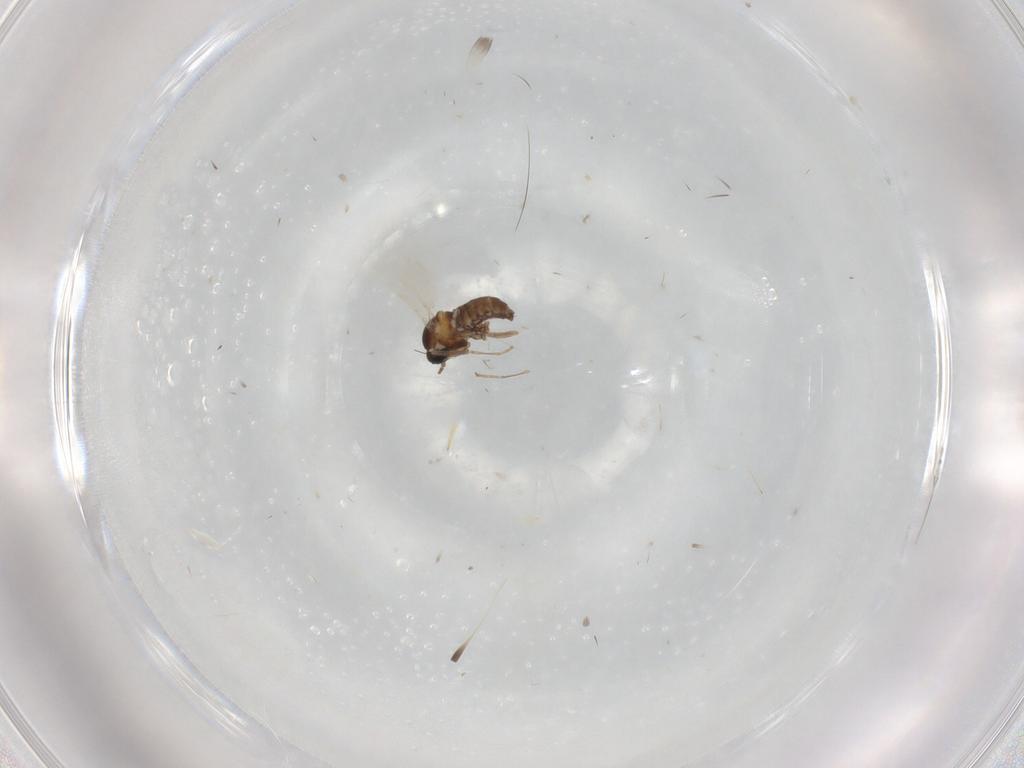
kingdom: Animalia
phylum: Arthropoda
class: Insecta
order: Diptera
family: Cecidomyiidae
